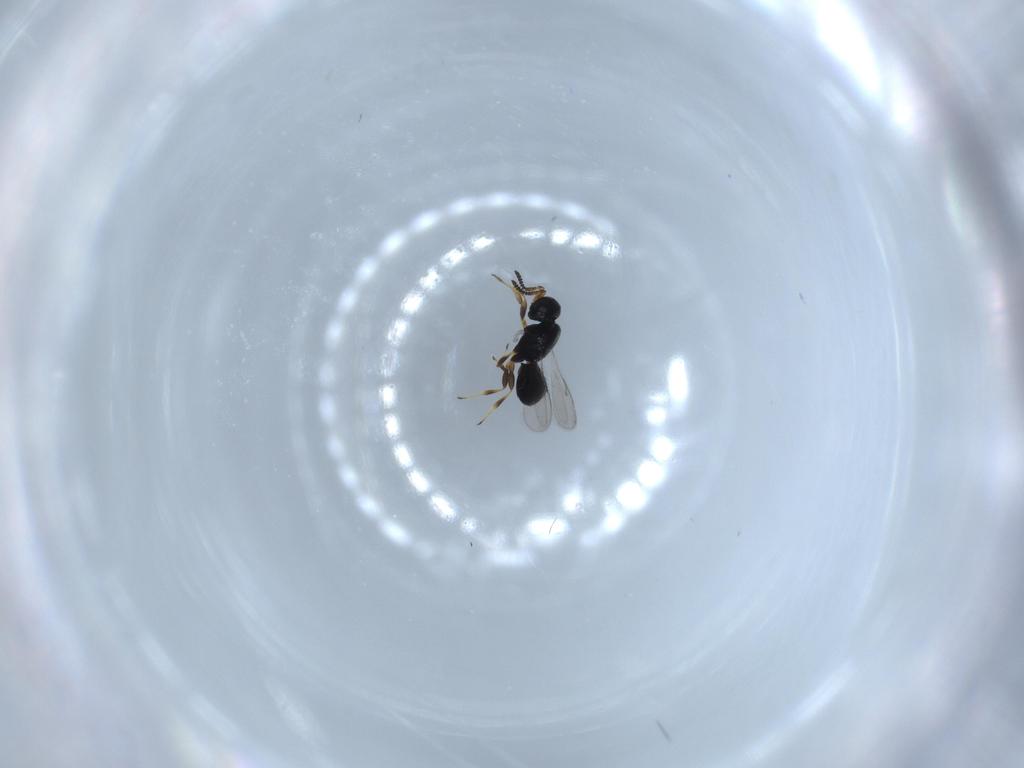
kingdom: Animalia
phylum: Arthropoda
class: Insecta
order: Hymenoptera
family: Scelionidae
